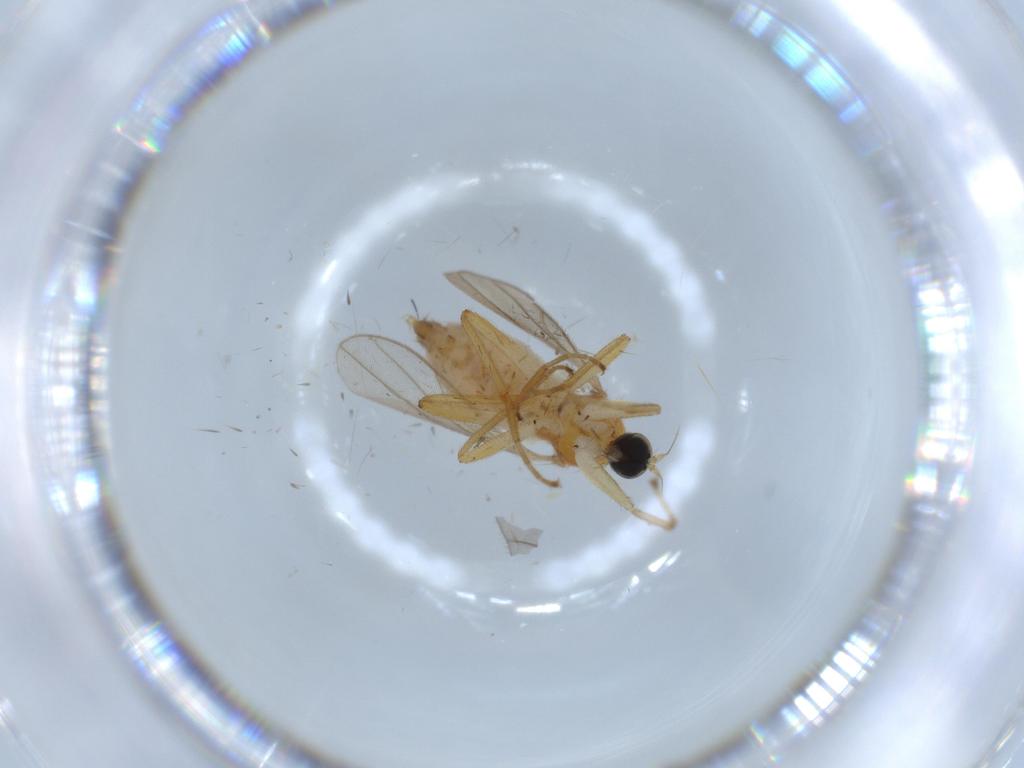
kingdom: Animalia
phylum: Arthropoda
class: Insecta
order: Diptera
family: Hybotidae
